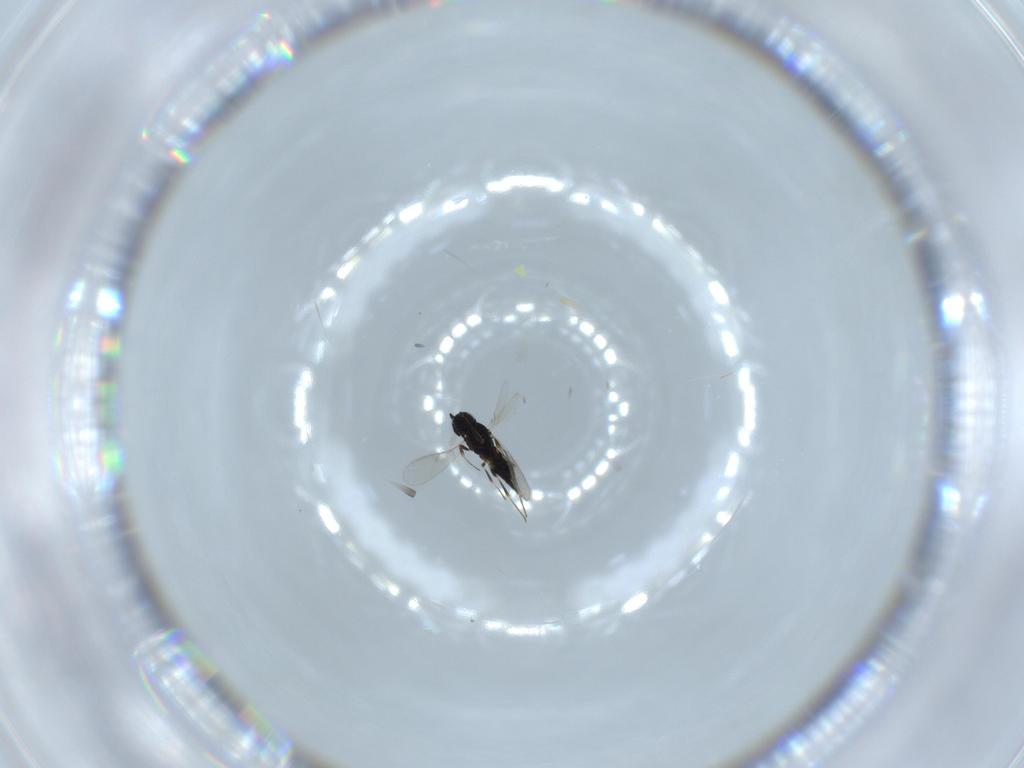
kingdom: Animalia
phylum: Arthropoda
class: Insecta
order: Hymenoptera
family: Scelionidae
